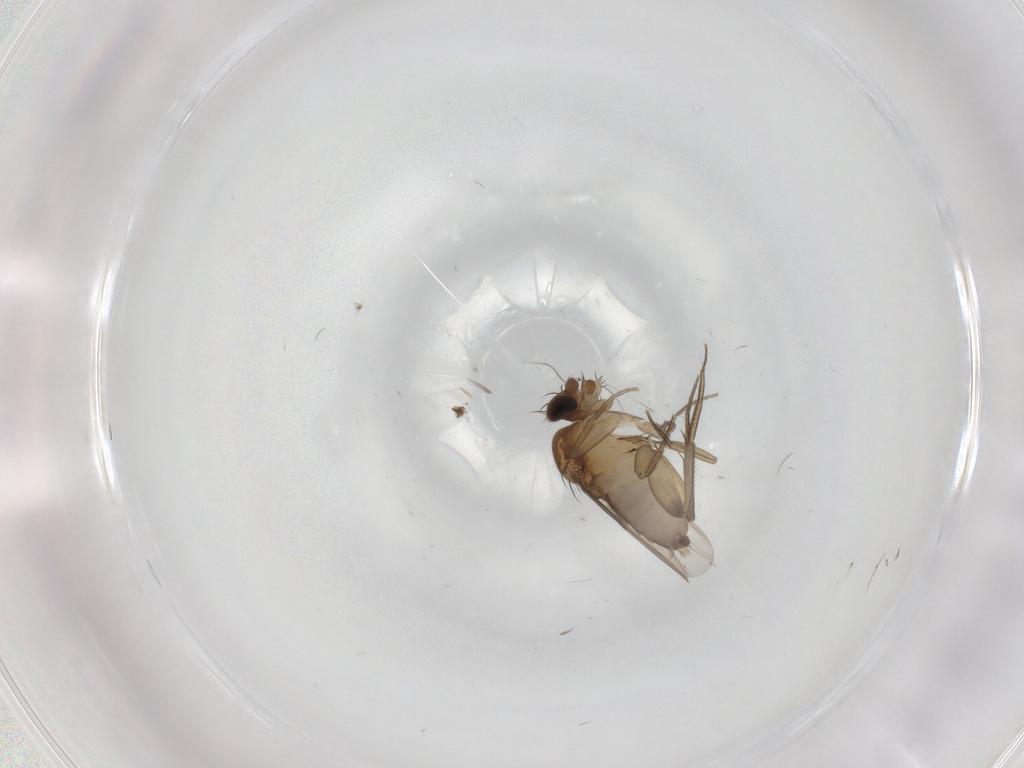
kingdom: Animalia
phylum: Arthropoda
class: Insecta
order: Diptera
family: Phoridae
